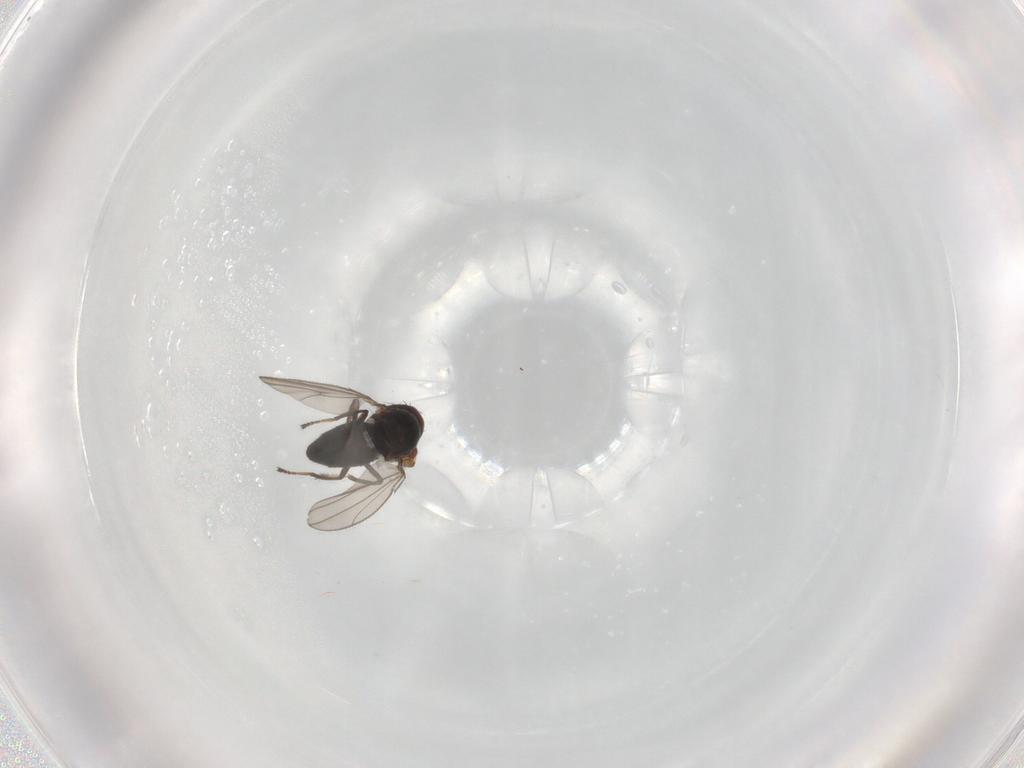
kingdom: Animalia
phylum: Arthropoda
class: Insecta
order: Diptera
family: Ephydridae
